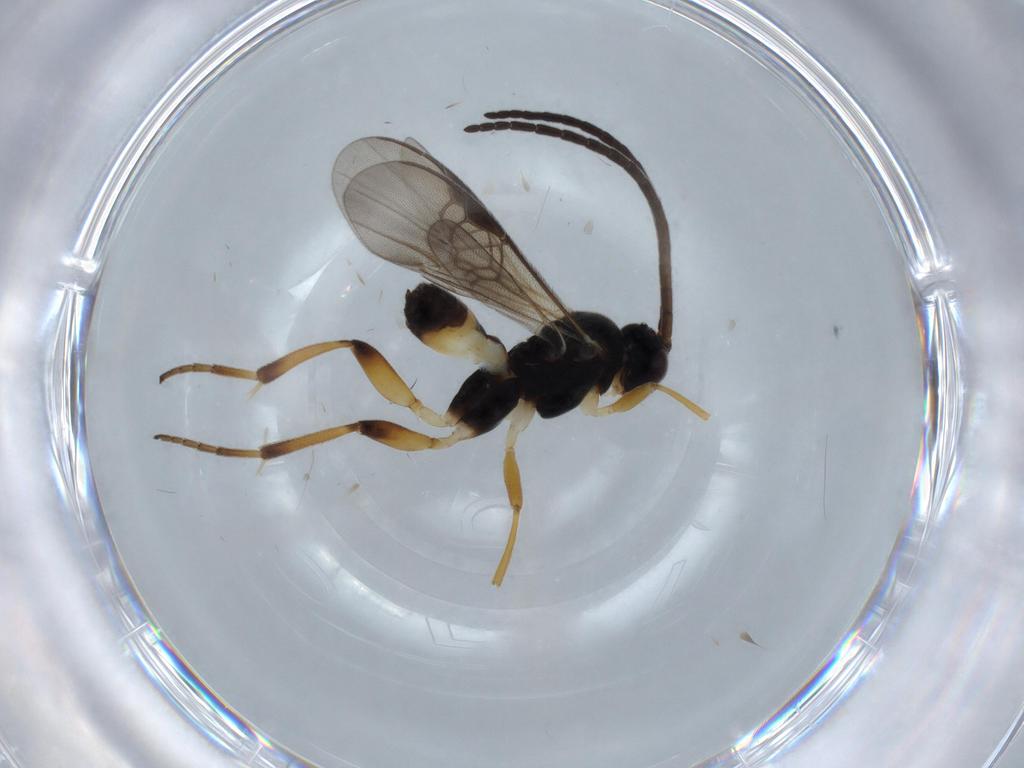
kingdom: Animalia
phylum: Arthropoda
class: Insecta
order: Hymenoptera
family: Braconidae
